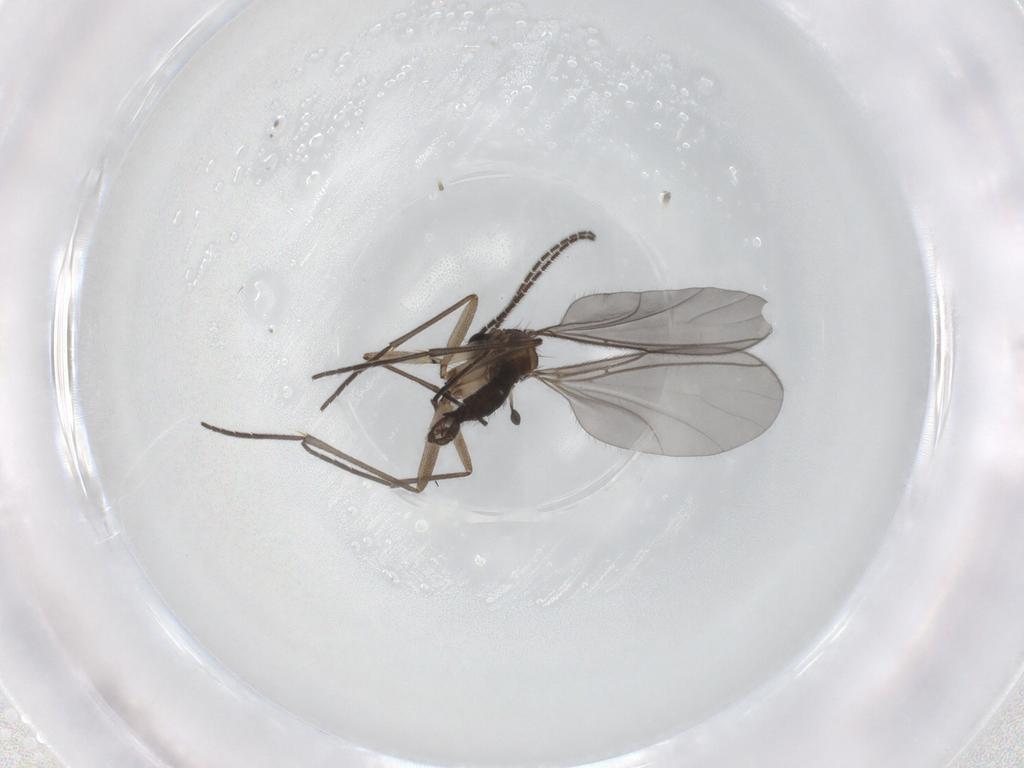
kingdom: Animalia
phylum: Arthropoda
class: Insecta
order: Diptera
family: Sciaridae
